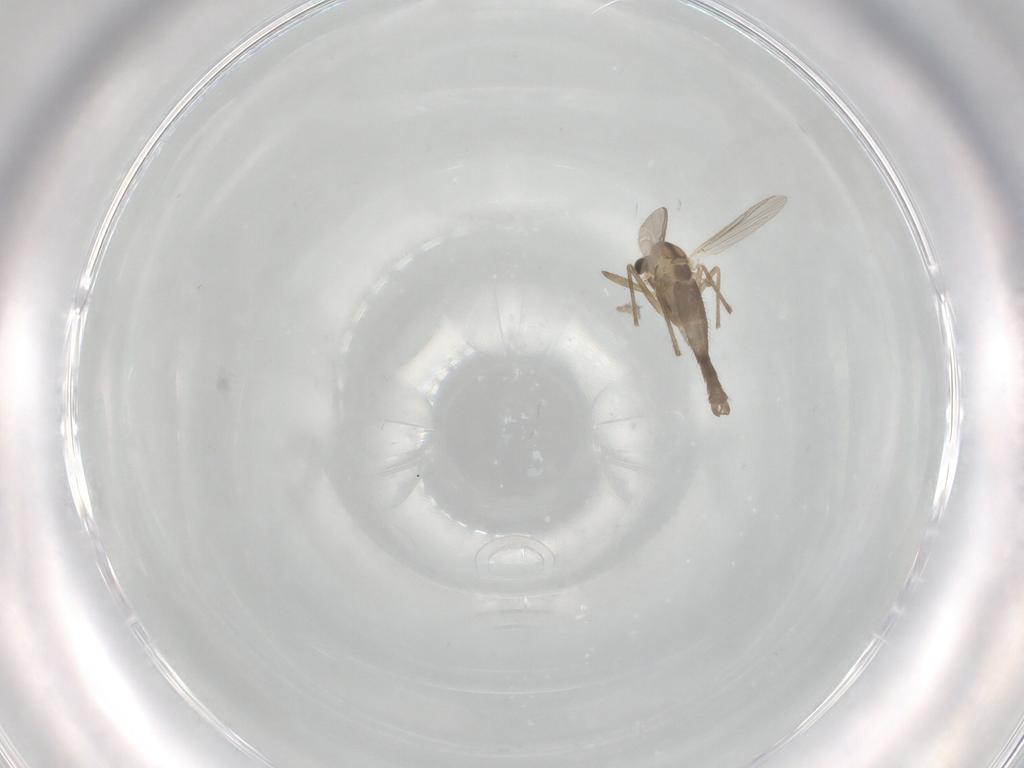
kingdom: Animalia
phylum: Arthropoda
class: Insecta
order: Diptera
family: Chironomidae
